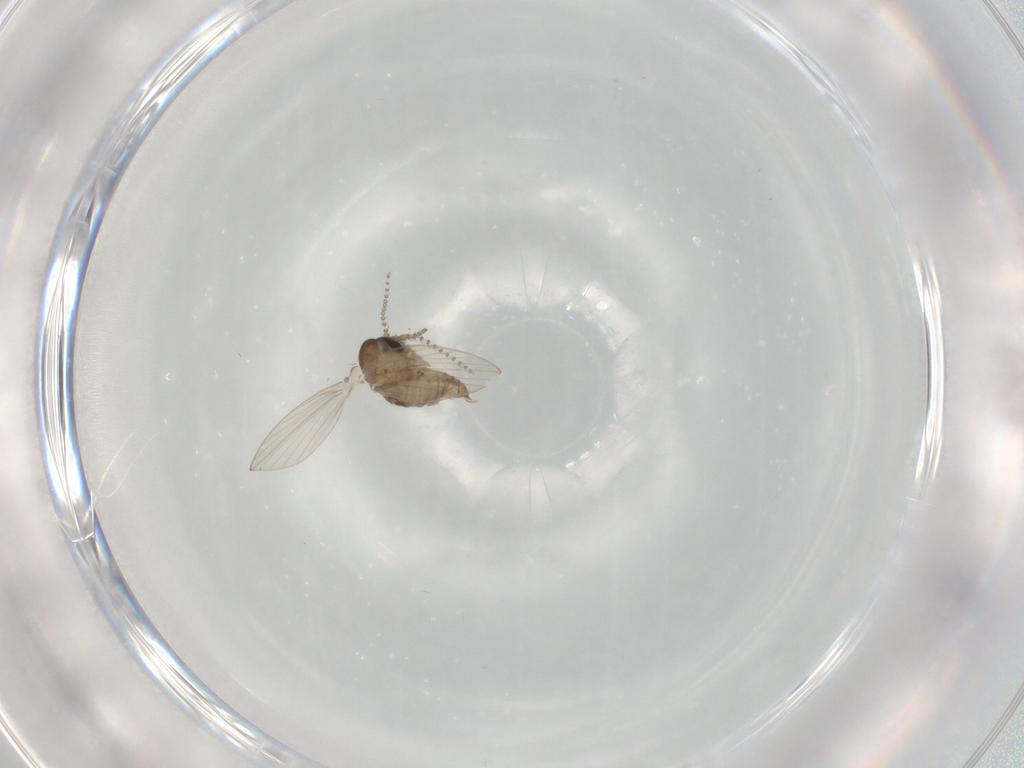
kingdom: Animalia
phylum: Arthropoda
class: Insecta
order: Diptera
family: Psychodidae
